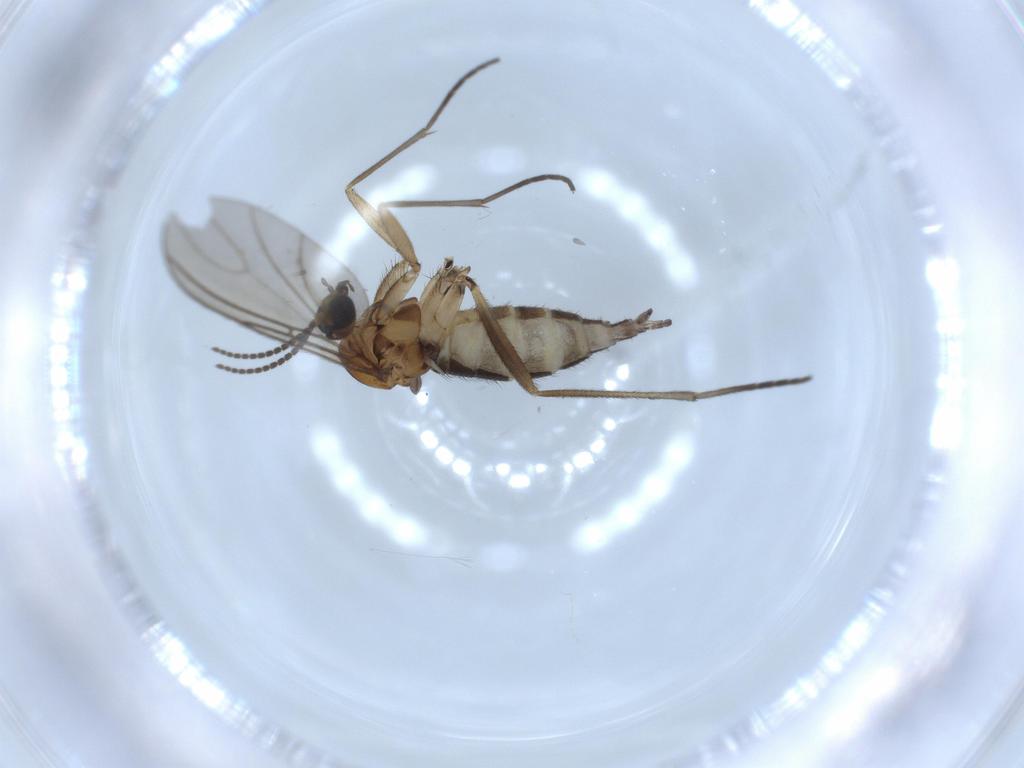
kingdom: Animalia
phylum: Arthropoda
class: Insecta
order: Diptera
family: Sciaridae
